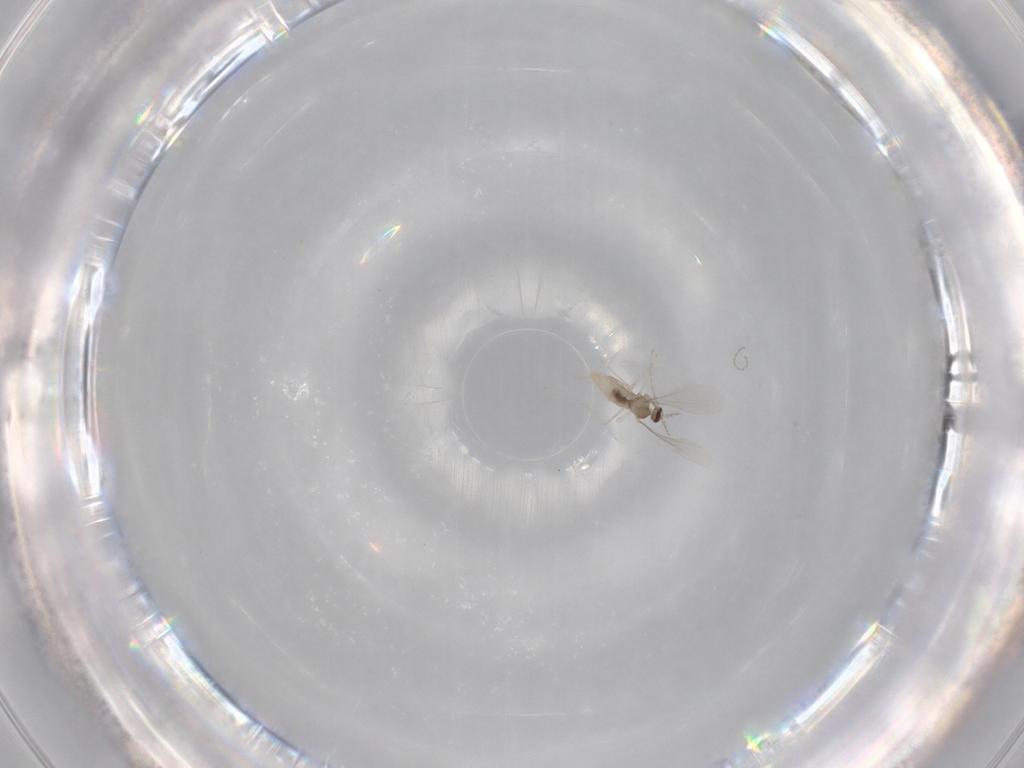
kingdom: Animalia
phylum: Arthropoda
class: Insecta
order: Diptera
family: Cecidomyiidae
